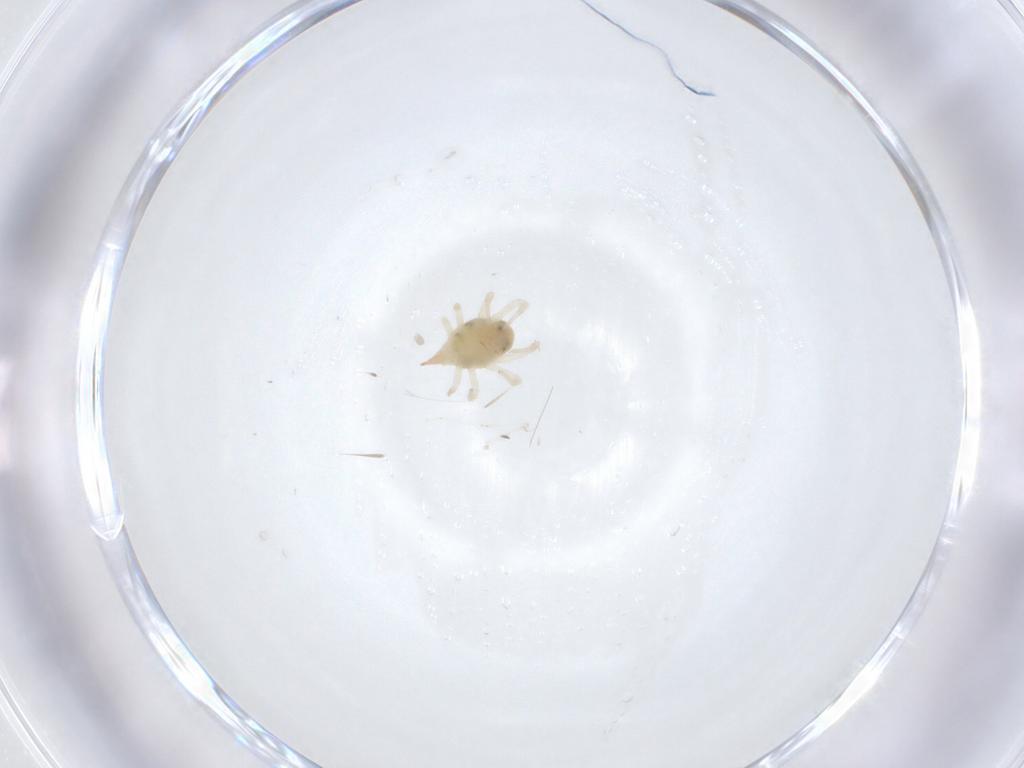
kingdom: Animalia
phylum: Arthropoda
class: Arachnida
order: Trombidiformes
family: Bdellidae
